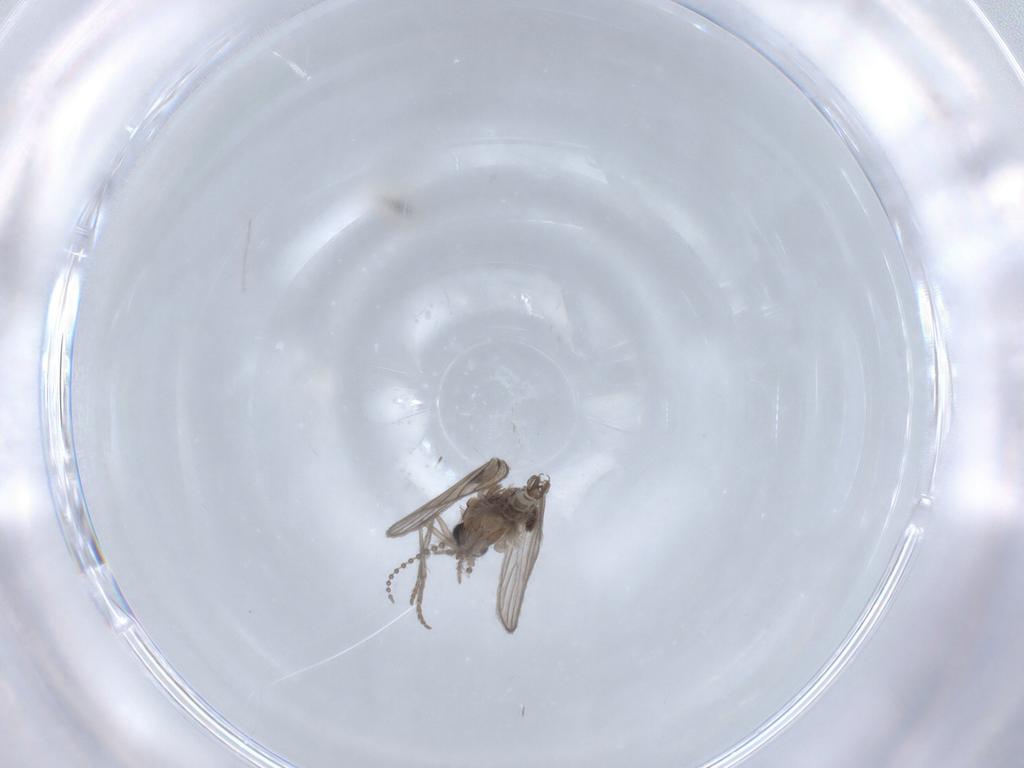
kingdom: Animalia
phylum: Arthropoda
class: Insecta
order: Diptera
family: Psychodidae
